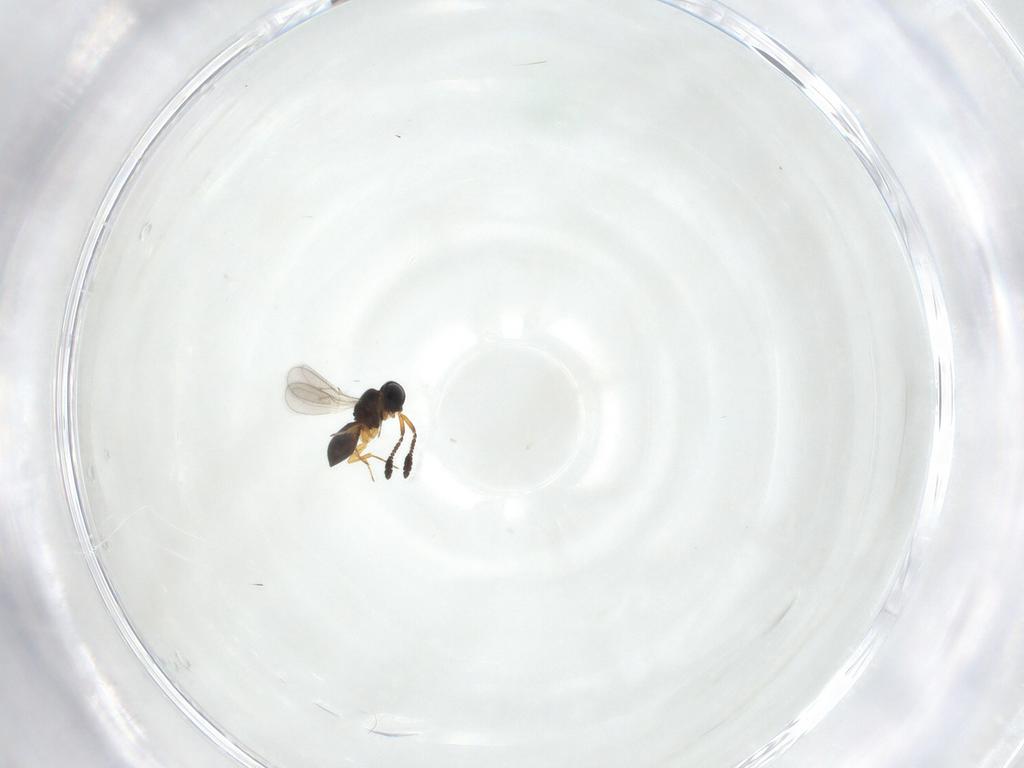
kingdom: Animalia
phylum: Arthropoda
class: Insecta
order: Hymenoptera
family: Scelionidae
